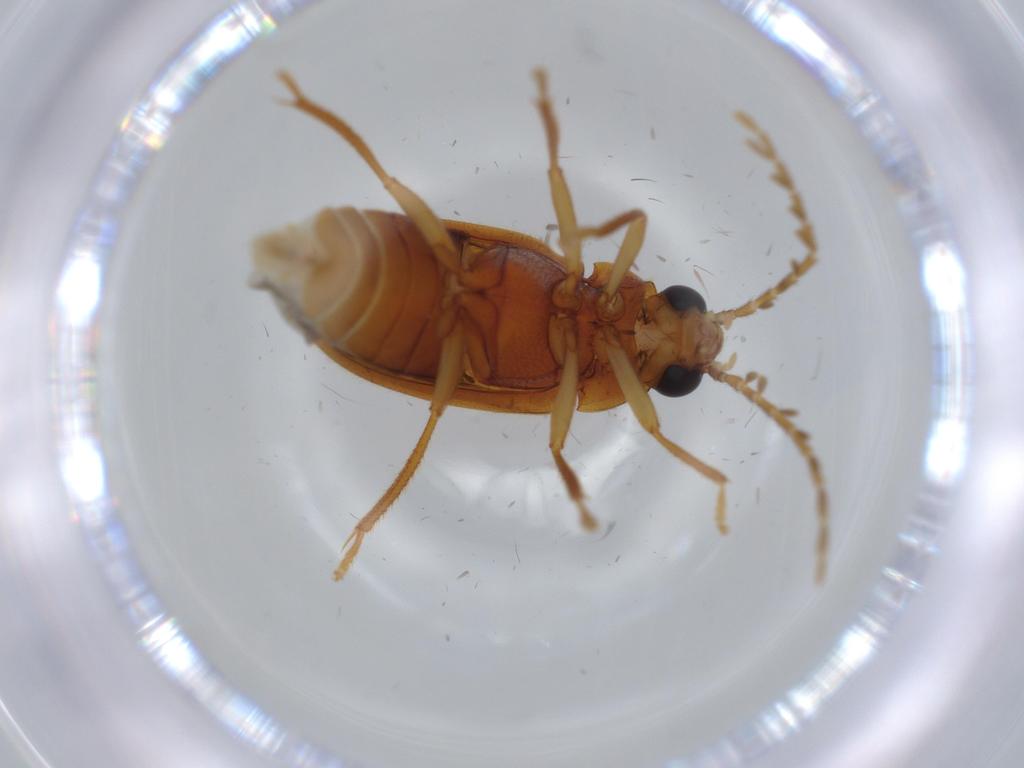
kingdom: Animalia
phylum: Arthropoda
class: Insecta
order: Coleoptera
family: Ptilodactylidae
